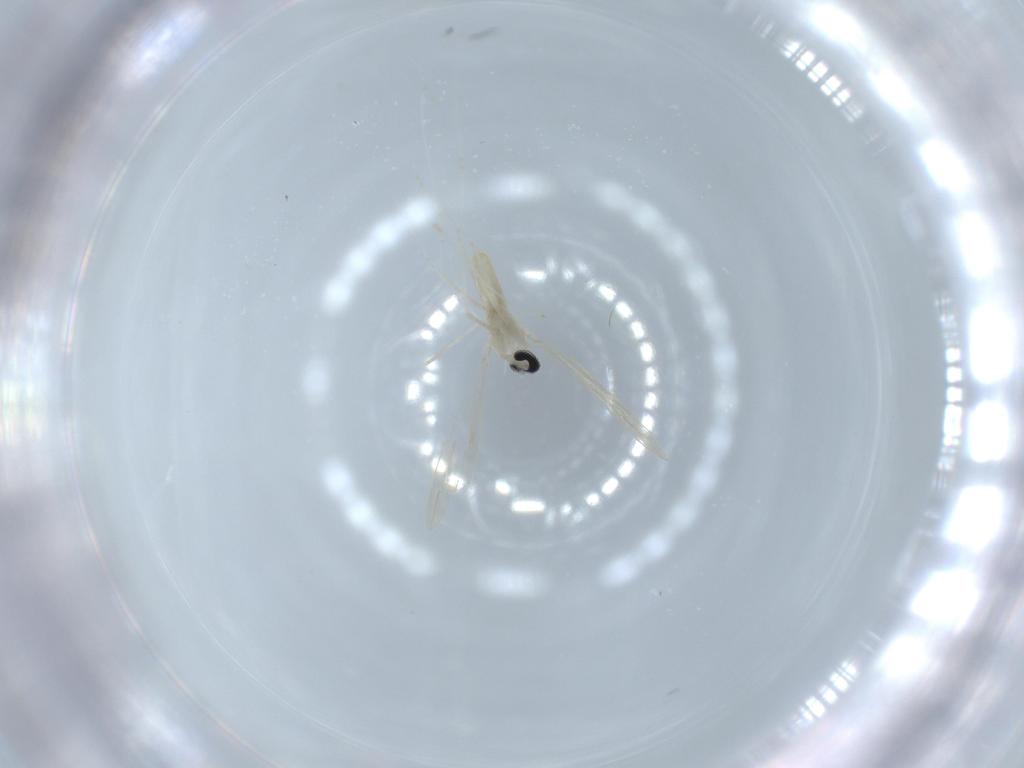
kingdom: Animalia
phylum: Arthropoda
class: Insecta
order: Diptera
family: Cecidomyiidae
